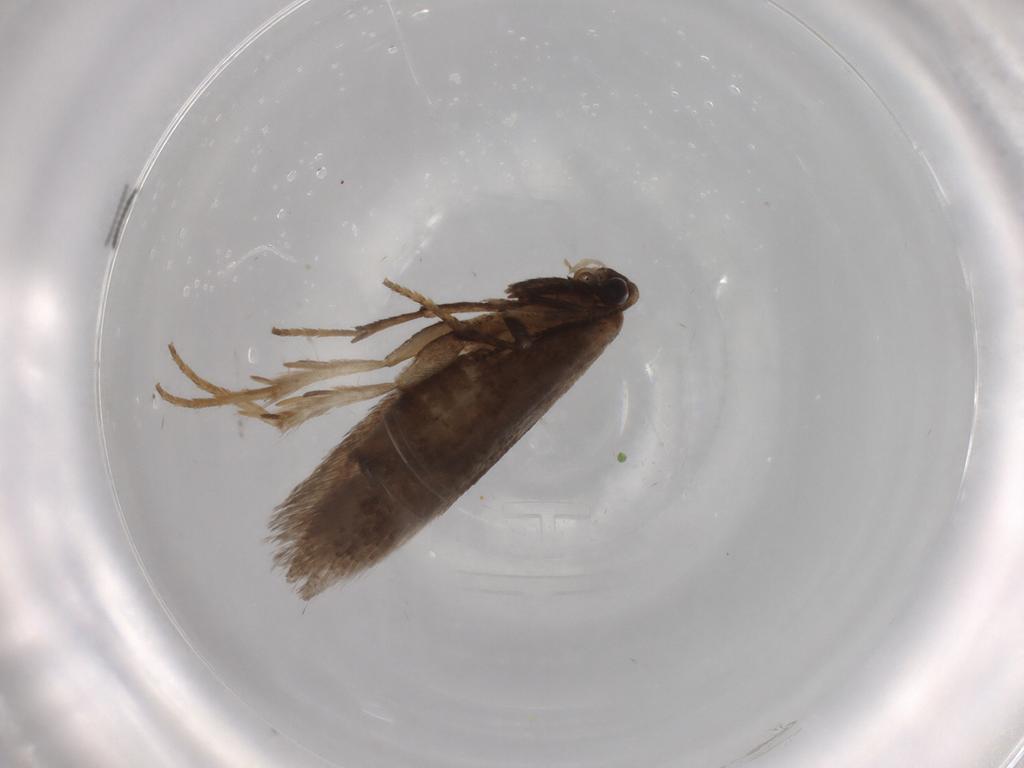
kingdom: Animalia
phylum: Arthropoda
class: Insecta
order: Lepidoptera
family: Nepticulidae
